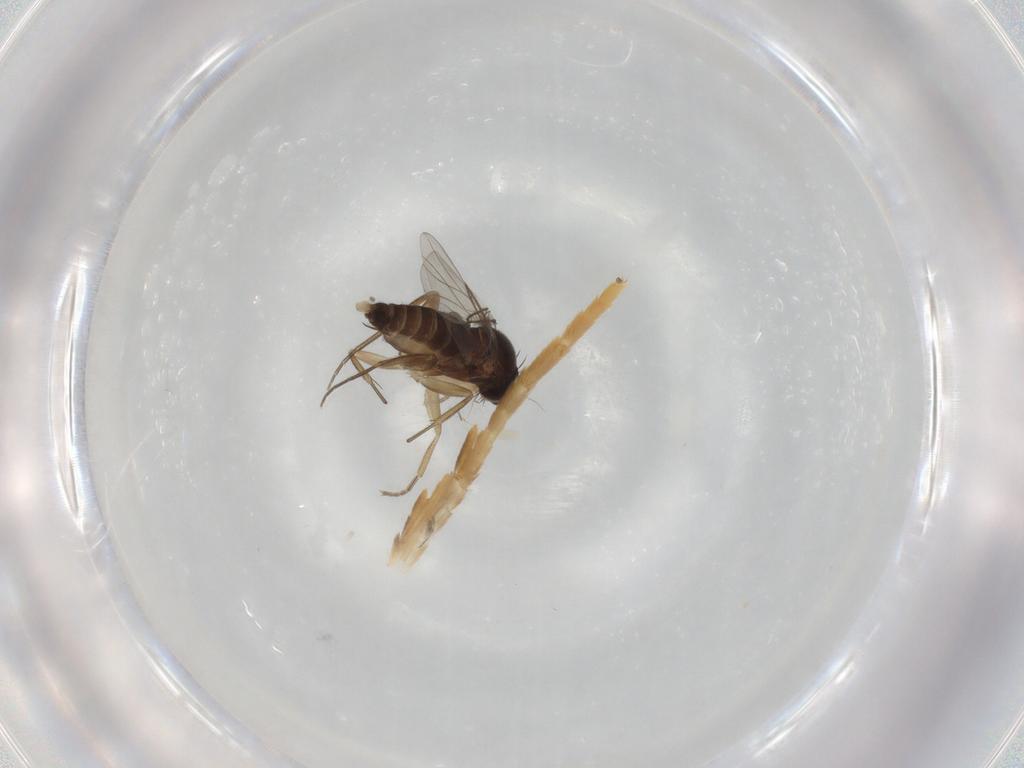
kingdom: Animalia
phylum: Arthropoda
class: Insecta
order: Diptera
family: Phoridae
